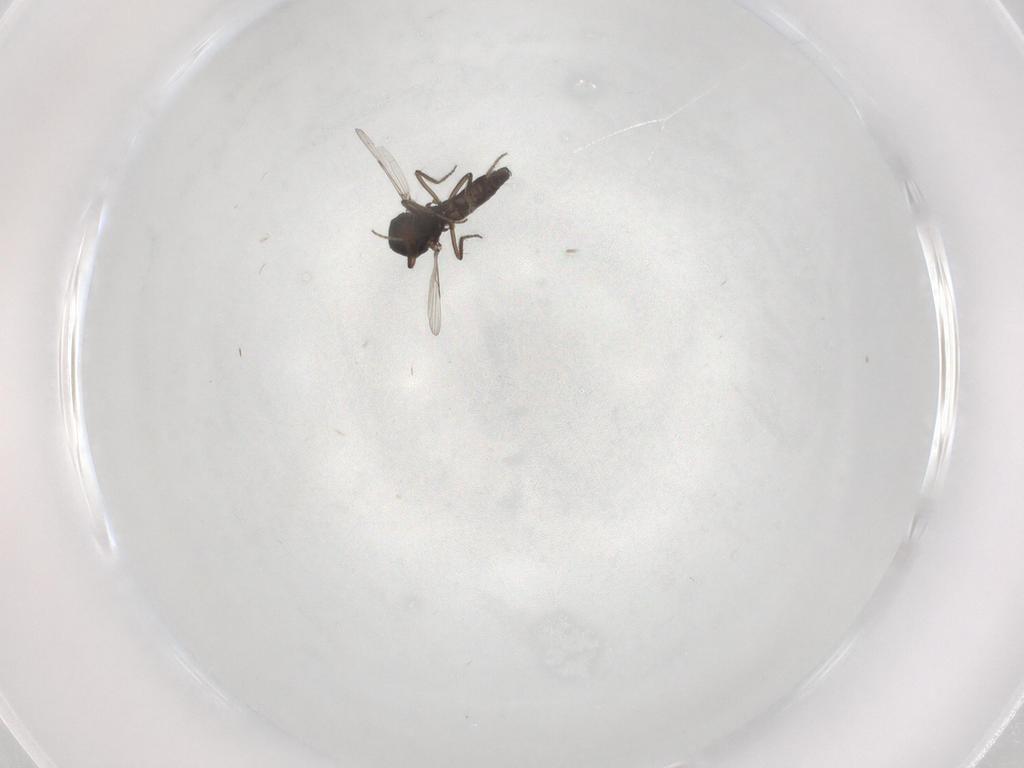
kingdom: Animalia
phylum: Arthropoda
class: Insecta
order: Diptera
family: Ceratopogonidae
